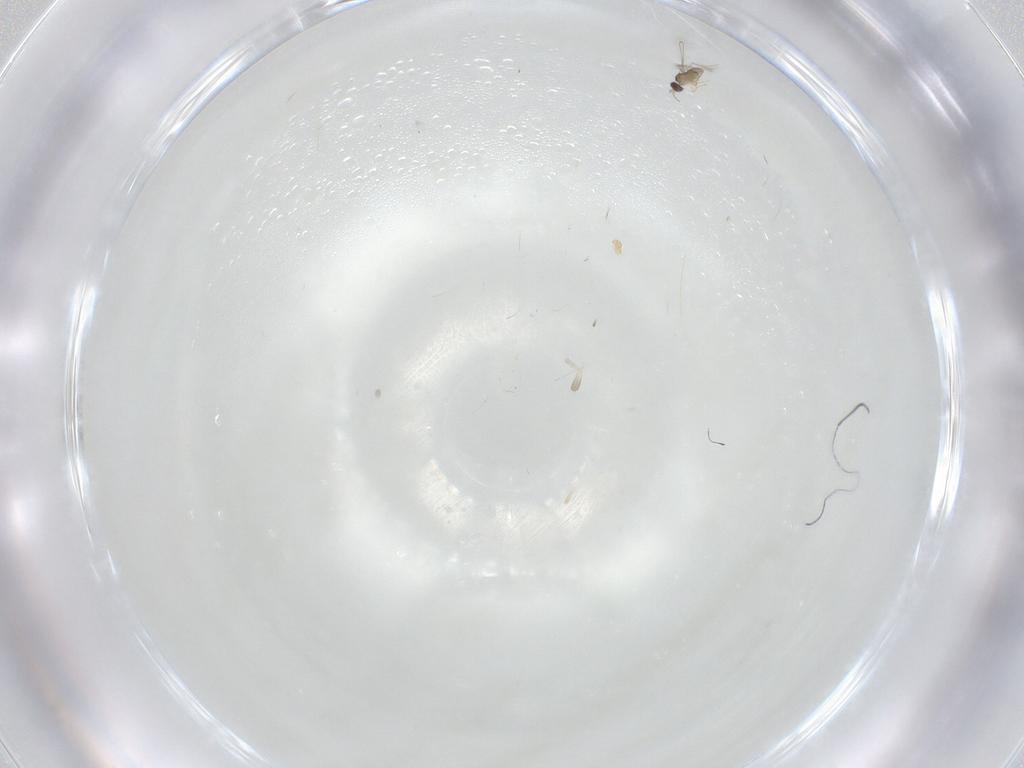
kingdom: Animalia
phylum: Arthropoda
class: Insecta
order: Hymenoptera
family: Mymaridae
